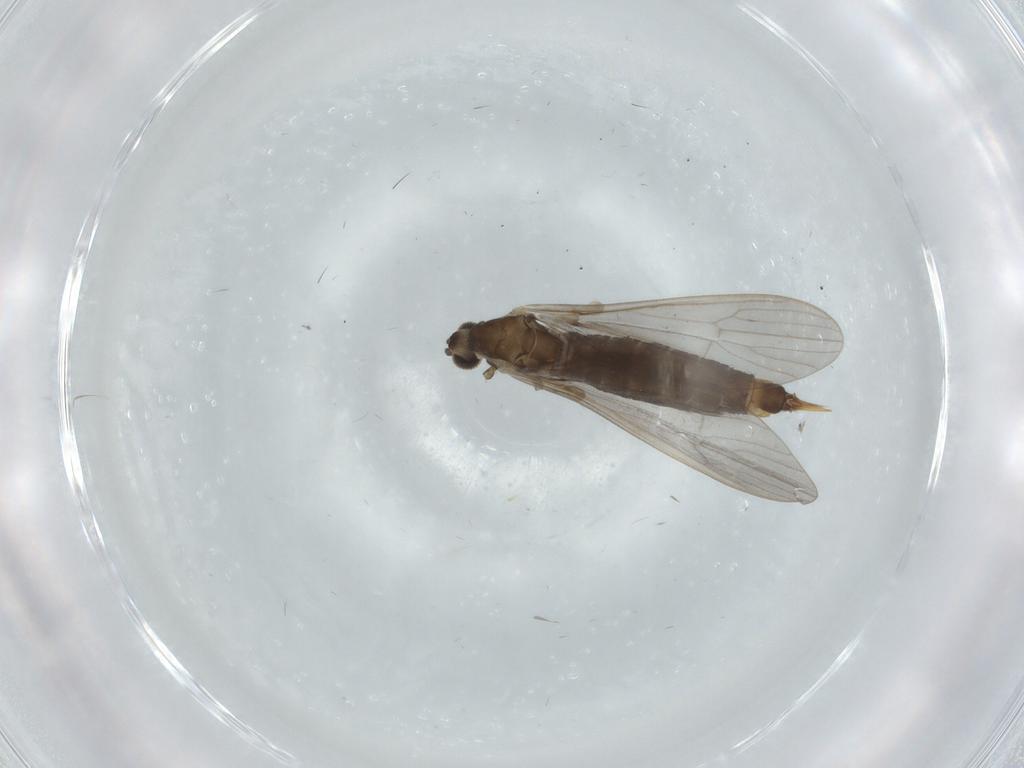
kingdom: Animalia
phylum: Arthropoda
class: Insecta
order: Diptera
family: Limoniidae
